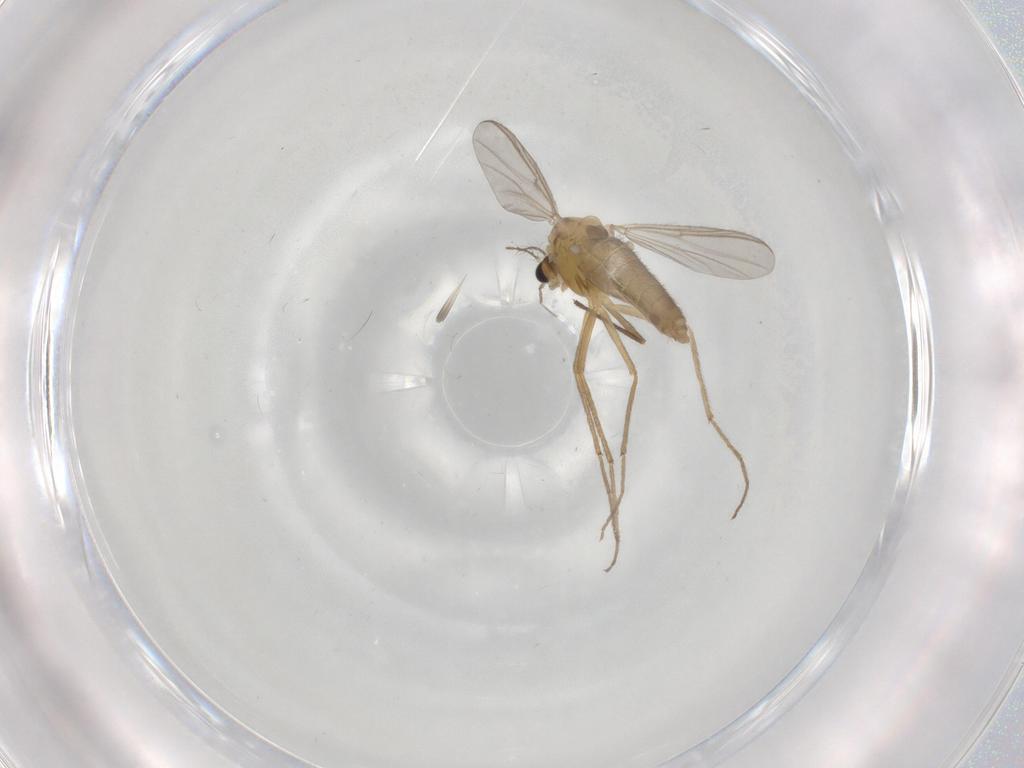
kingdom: Animalia
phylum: Arthropoda
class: Insecta
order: Diptera
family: Chironomidae
